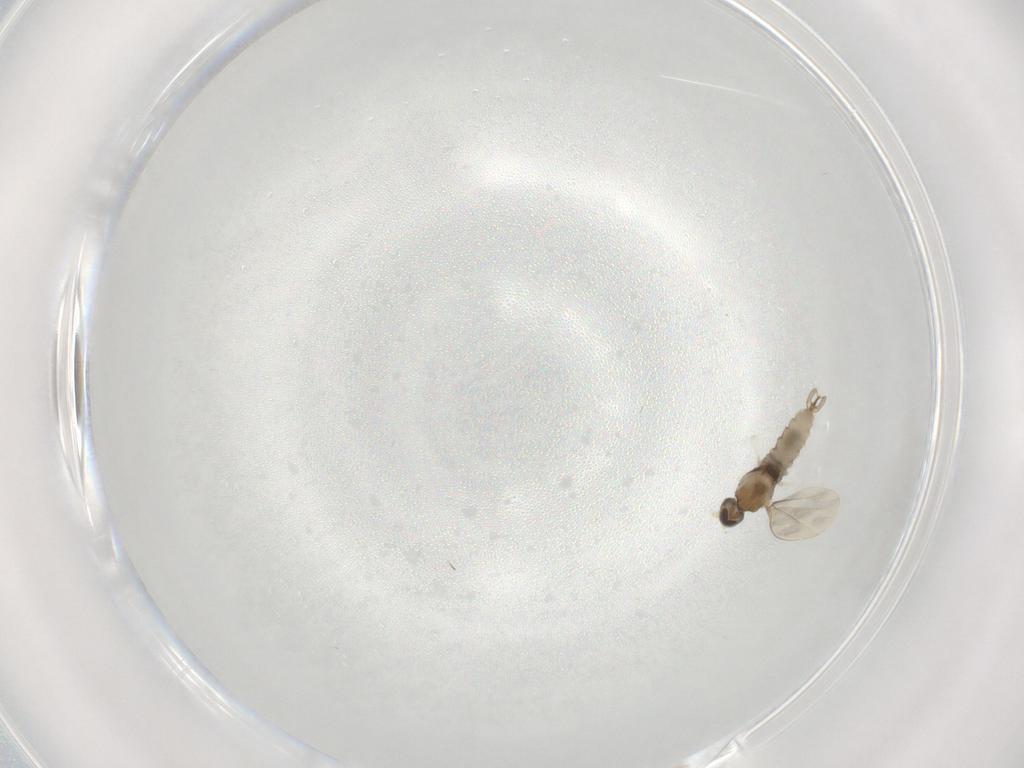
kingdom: Animalia
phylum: Arthropoda
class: Insecta
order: Diptera
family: Cecidomyiidae
